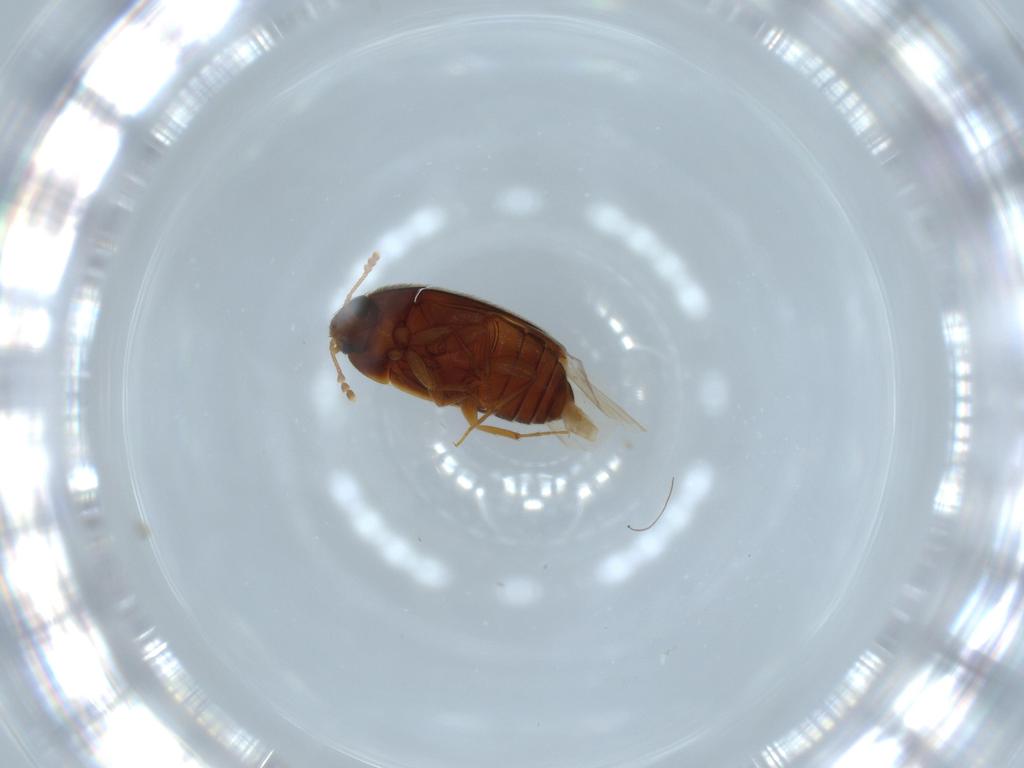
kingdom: Animalia
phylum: Arthropoda
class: Insecta
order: Coleoptera
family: Mycetophagidae
